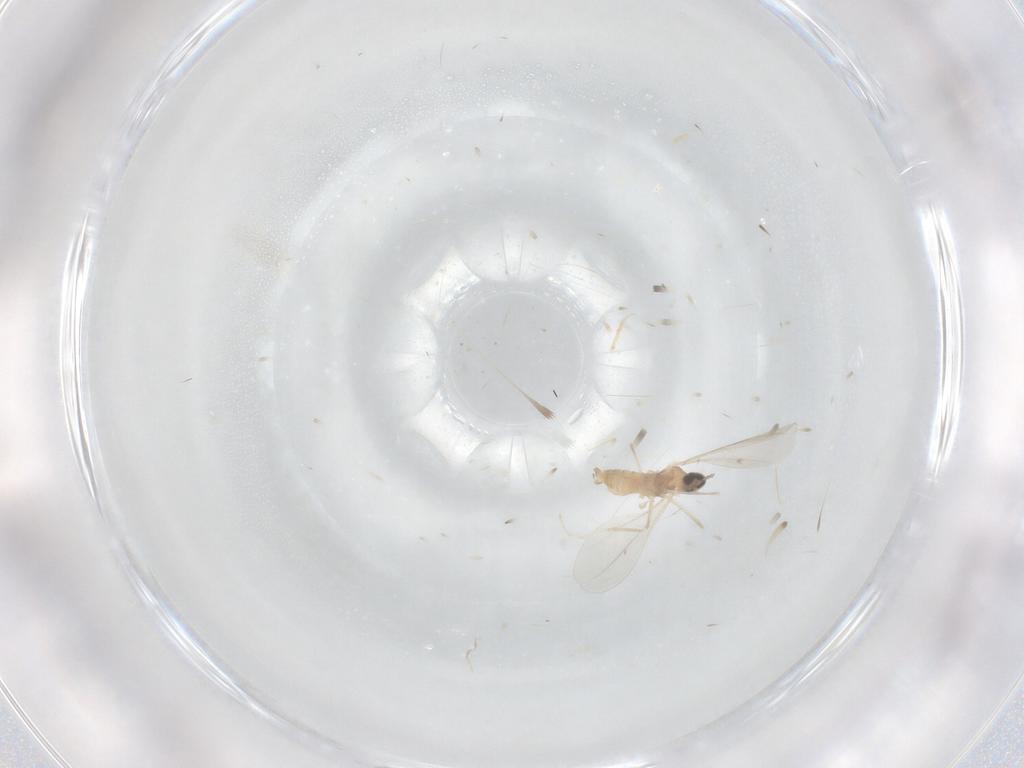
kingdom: Animalia
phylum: Arthropoda
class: Insecta
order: Diptera
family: Cecidomyiidae
